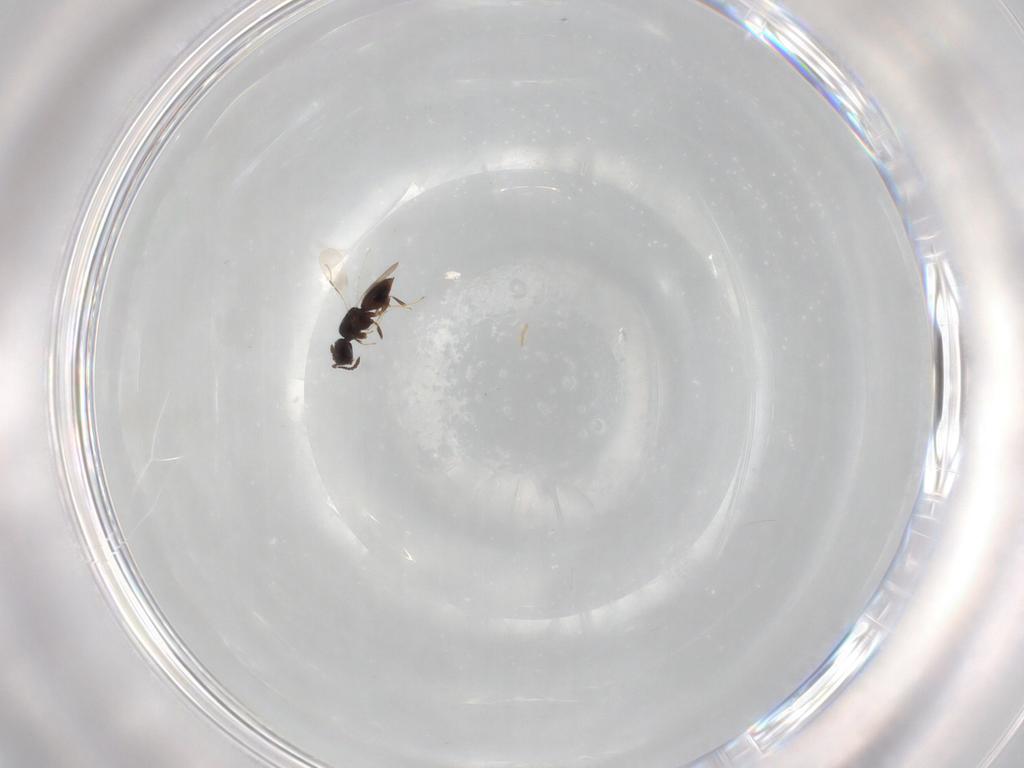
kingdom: Animalia
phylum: Arthropoda
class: Insecta
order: Hymenoptera
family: Ceraphronidae
